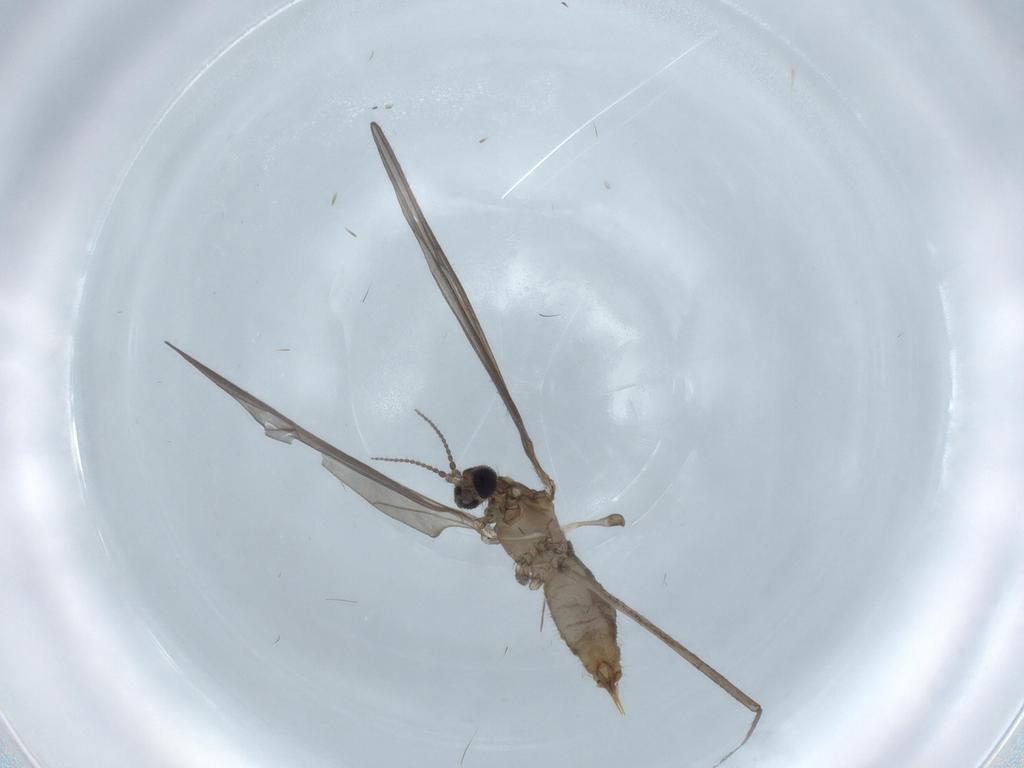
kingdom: Animalia
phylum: Arthropoda
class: Insecta
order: Diptera
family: Limoniidae
